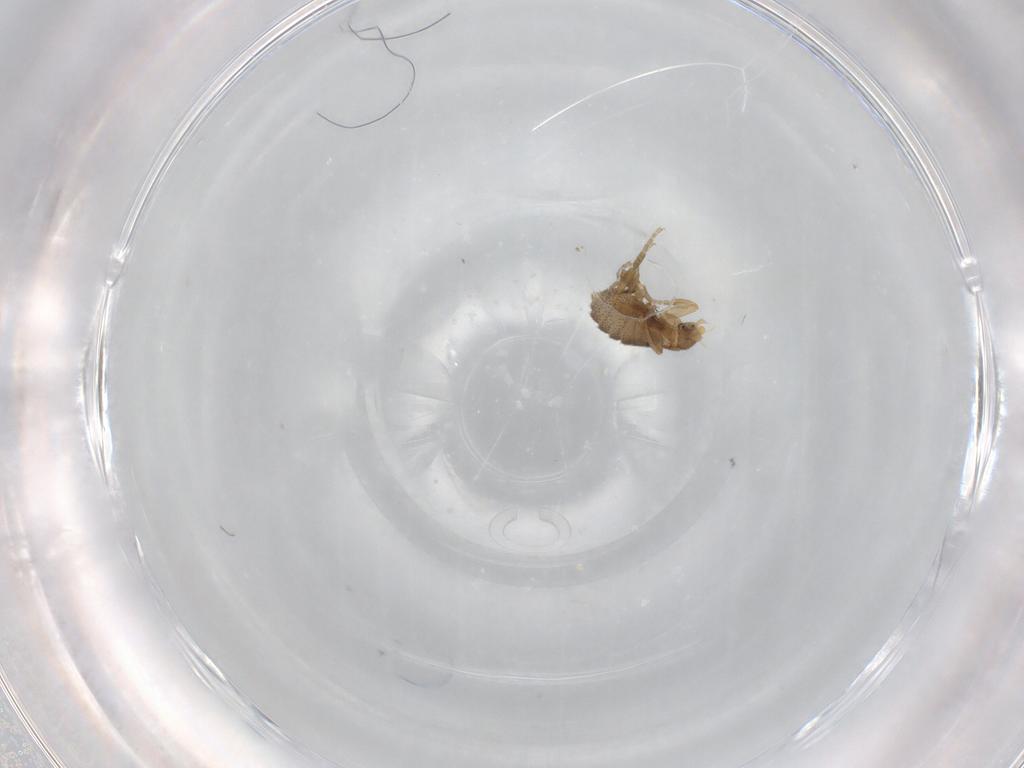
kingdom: Animalia
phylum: Arthropoda
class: Insecta
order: Diptera
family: Phoridae
